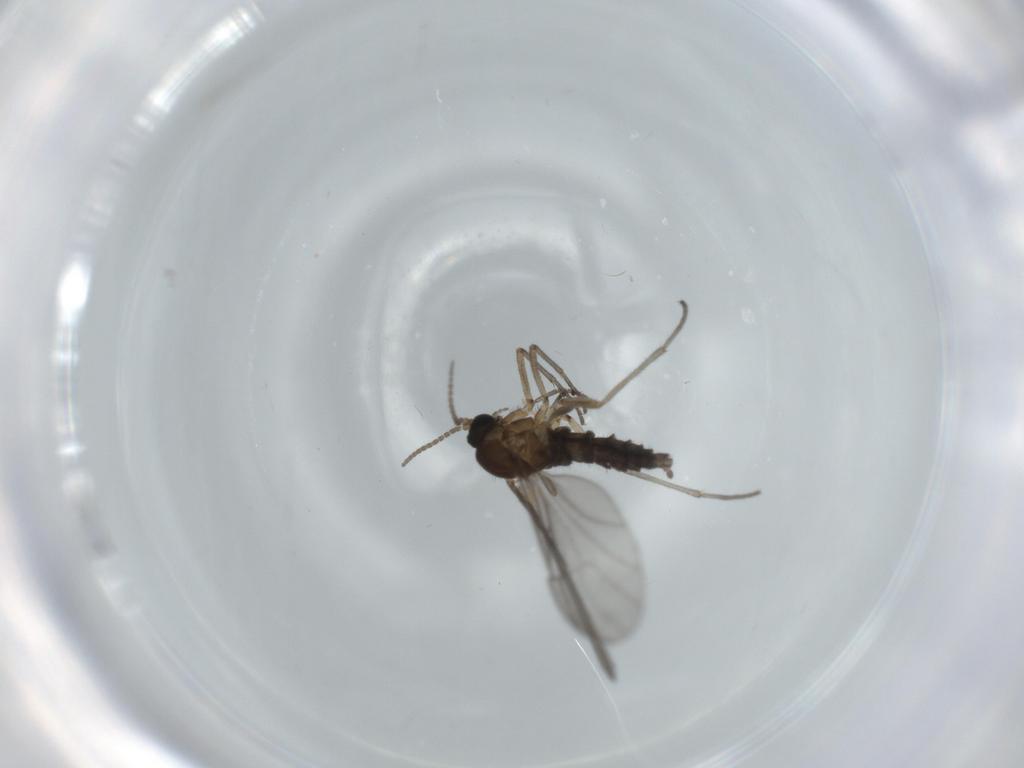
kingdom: Animalia
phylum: Arthropoda
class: Insecta
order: Diptera
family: Sciaridae
